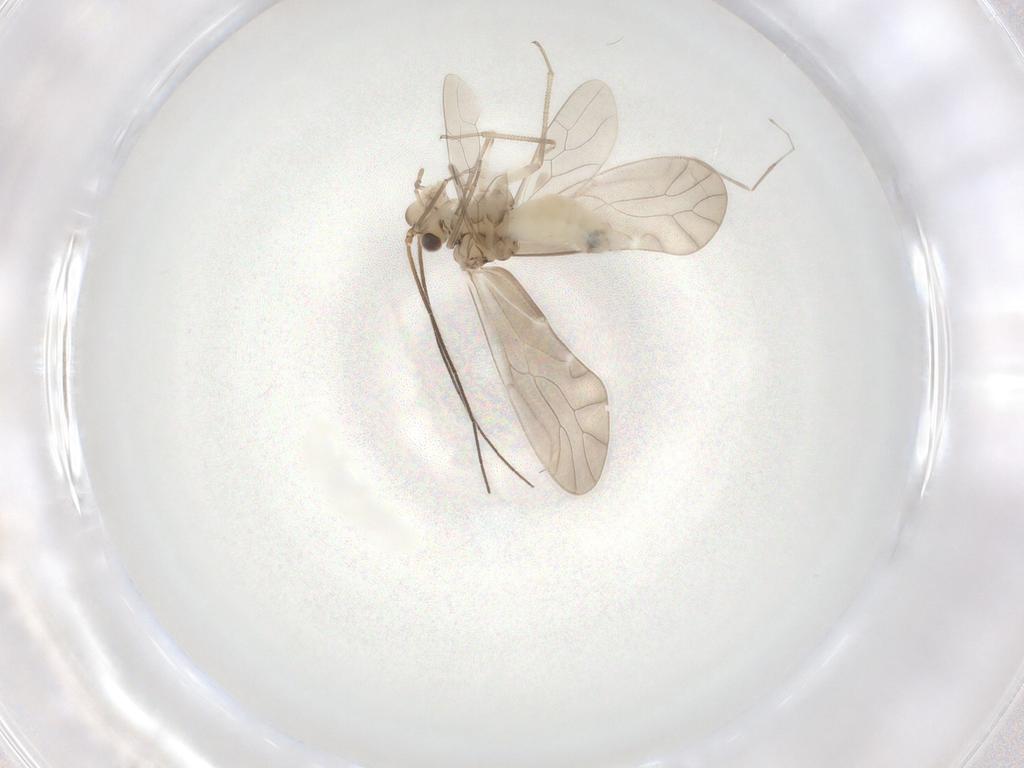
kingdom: Animalia
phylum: Arthropoda
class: Insecta
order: Psocodea
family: Caeciliusidae
